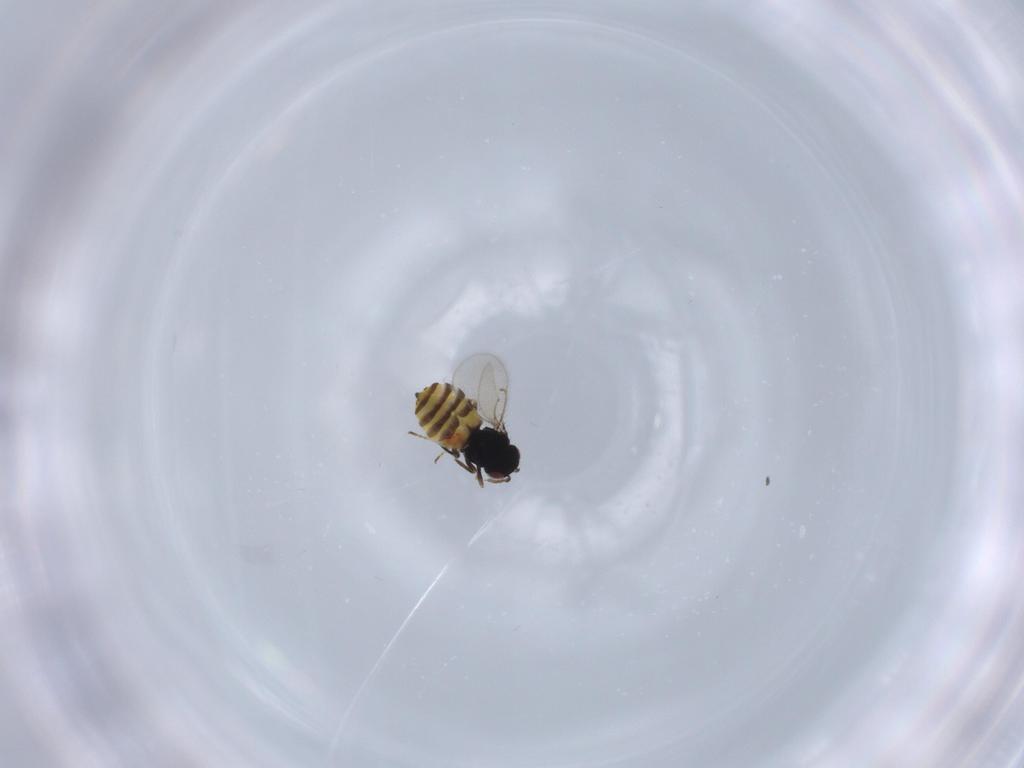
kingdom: Animalia
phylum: Arthropoda
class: Insecta
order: Hymenoptera
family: Eulophidae
